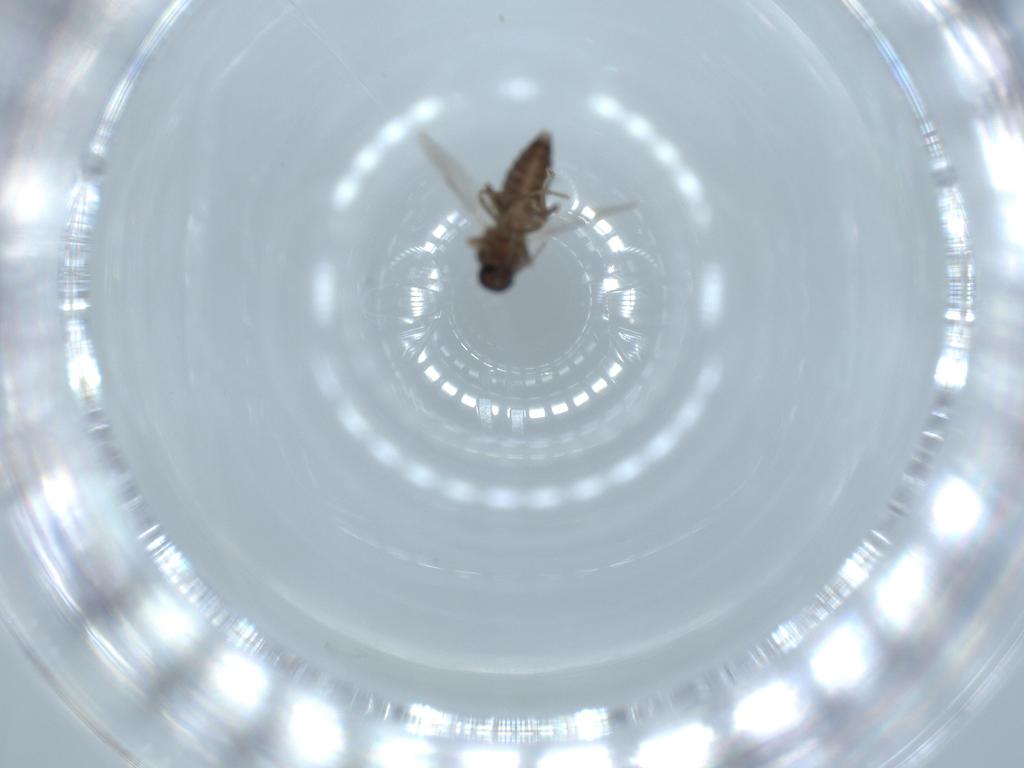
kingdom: Animalia
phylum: Arthropoda
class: Insecta
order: Diptera
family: Ceratopogonidae
